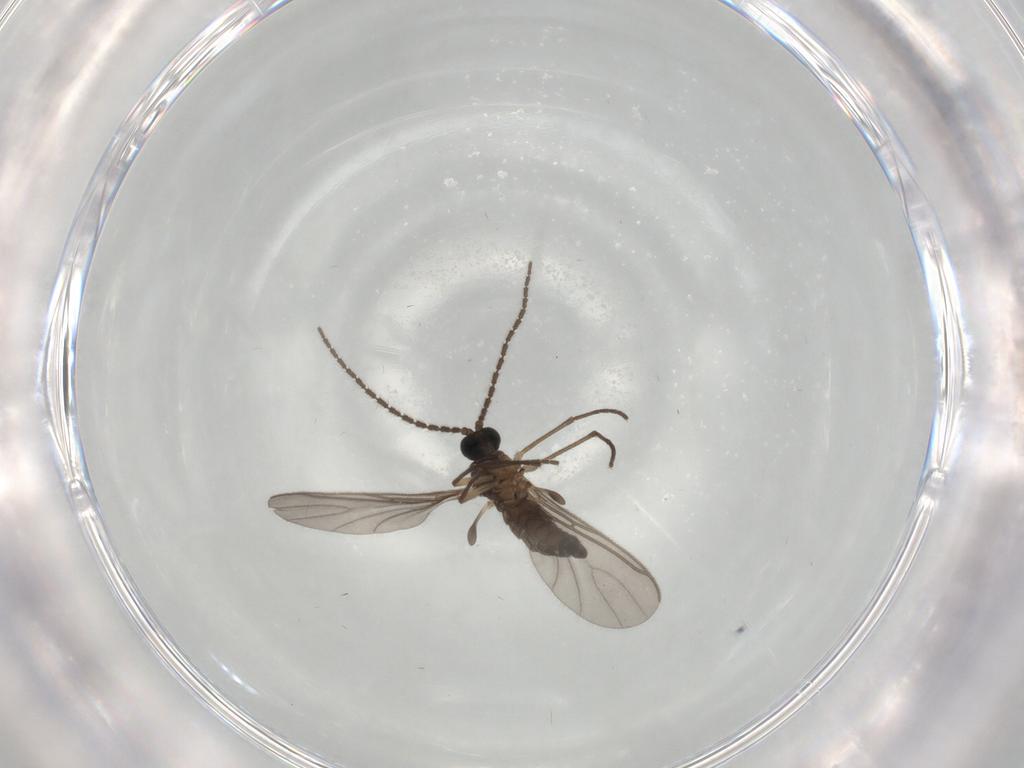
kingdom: Animalia
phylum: Arthropoda
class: Insecta
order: Diptera
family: Sciaridae
